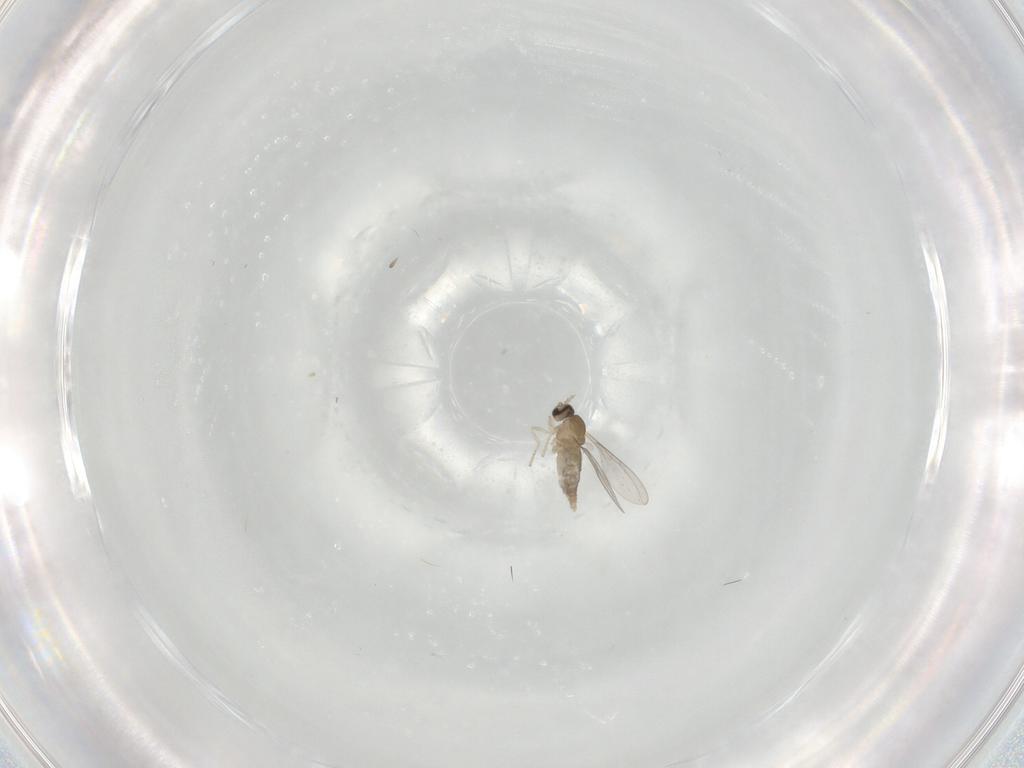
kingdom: Animalia
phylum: Arthropoda
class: Insecta
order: Diptera
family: Cecidomyiidae
